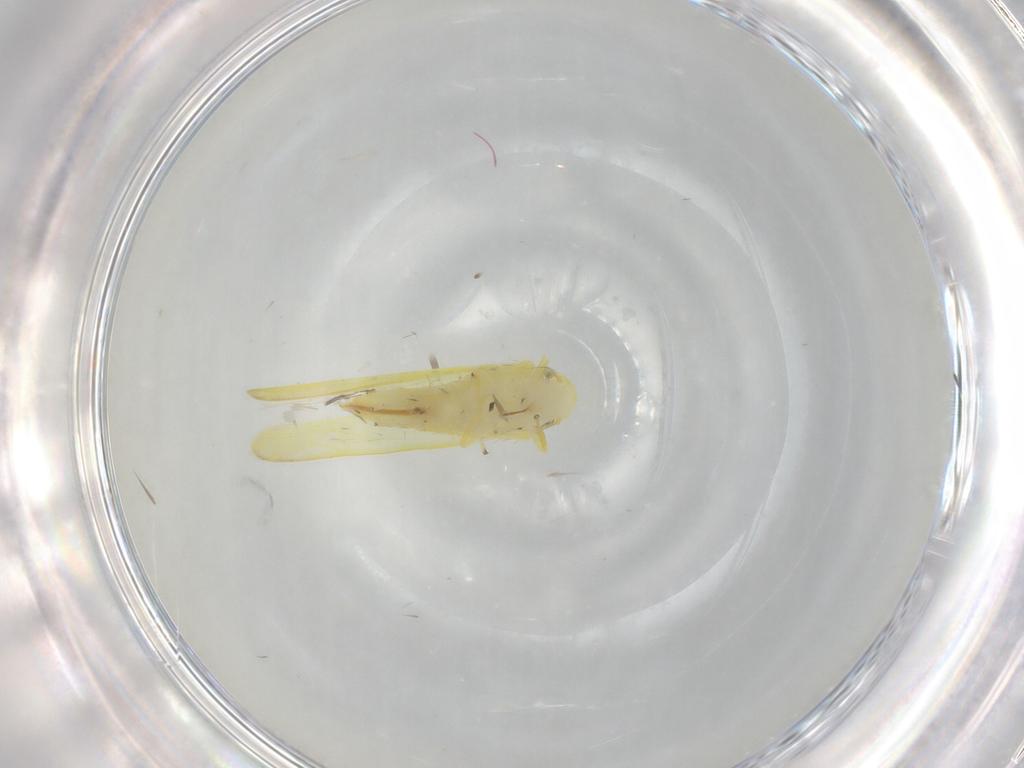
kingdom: Animalia
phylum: Arthropoda
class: Insecta
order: Hemiptera
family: Cicadellidae
